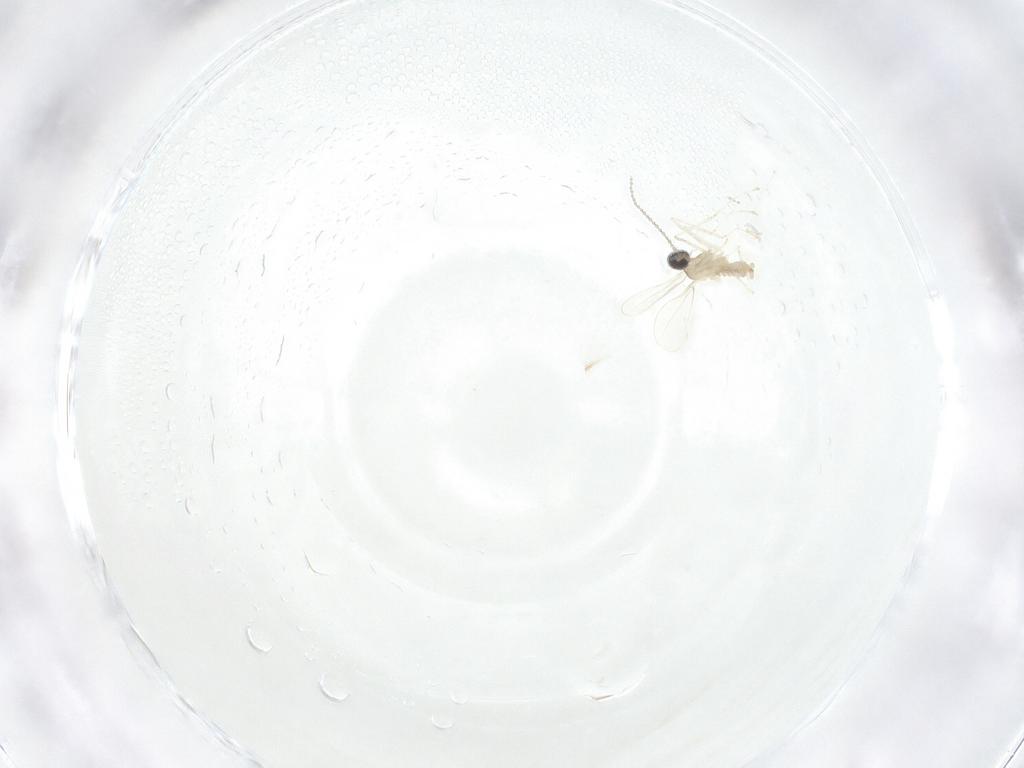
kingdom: Animalia
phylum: Arthropoda
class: Insecta
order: Diptera
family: Cecidomyiidae
